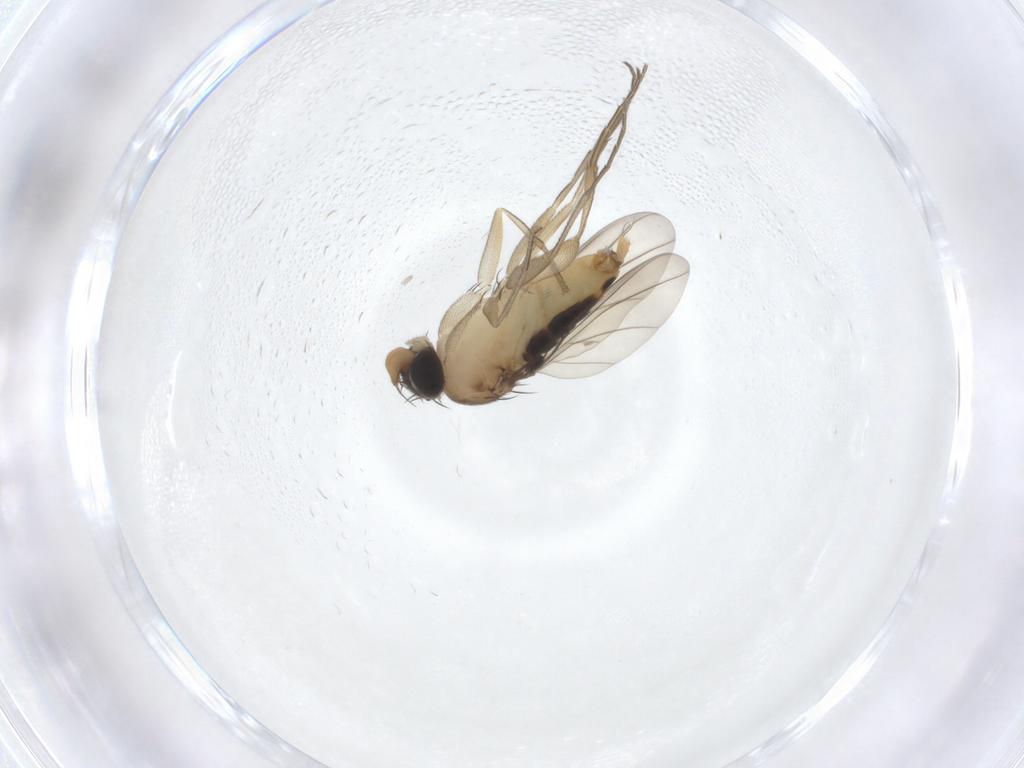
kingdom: Animalia
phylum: Arthropoda
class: Insecta
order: Diptera
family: Phoridae
